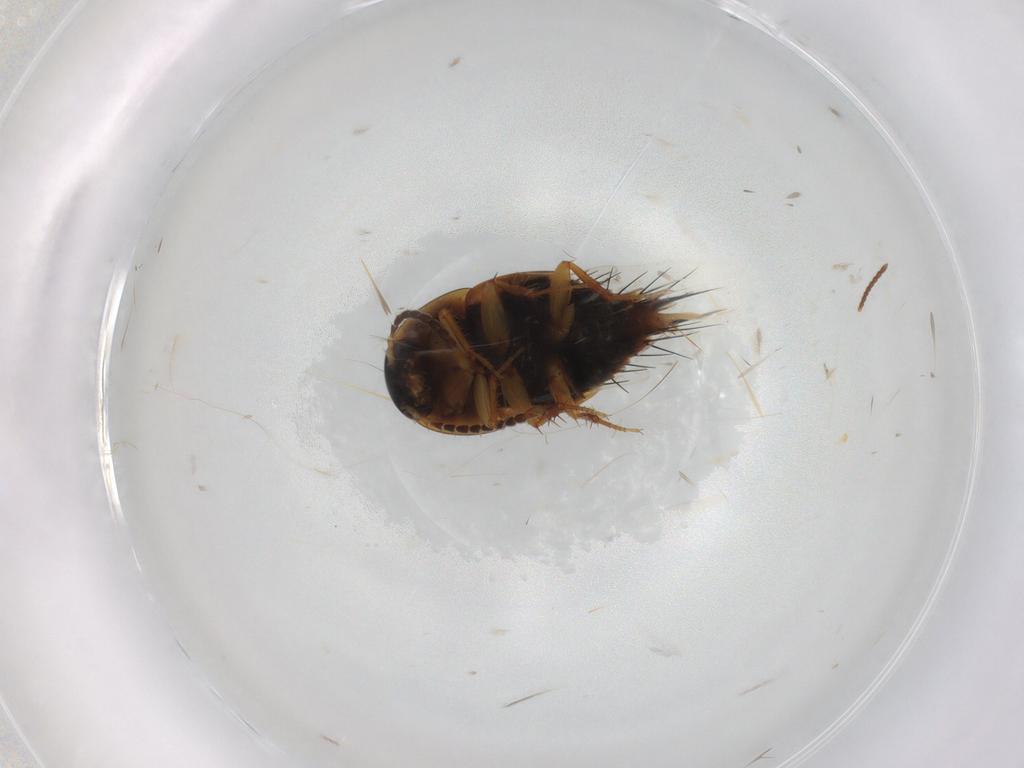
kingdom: Animalia
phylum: Arthropoda
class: Insecta
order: Coleoptera
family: Staphylinidae
